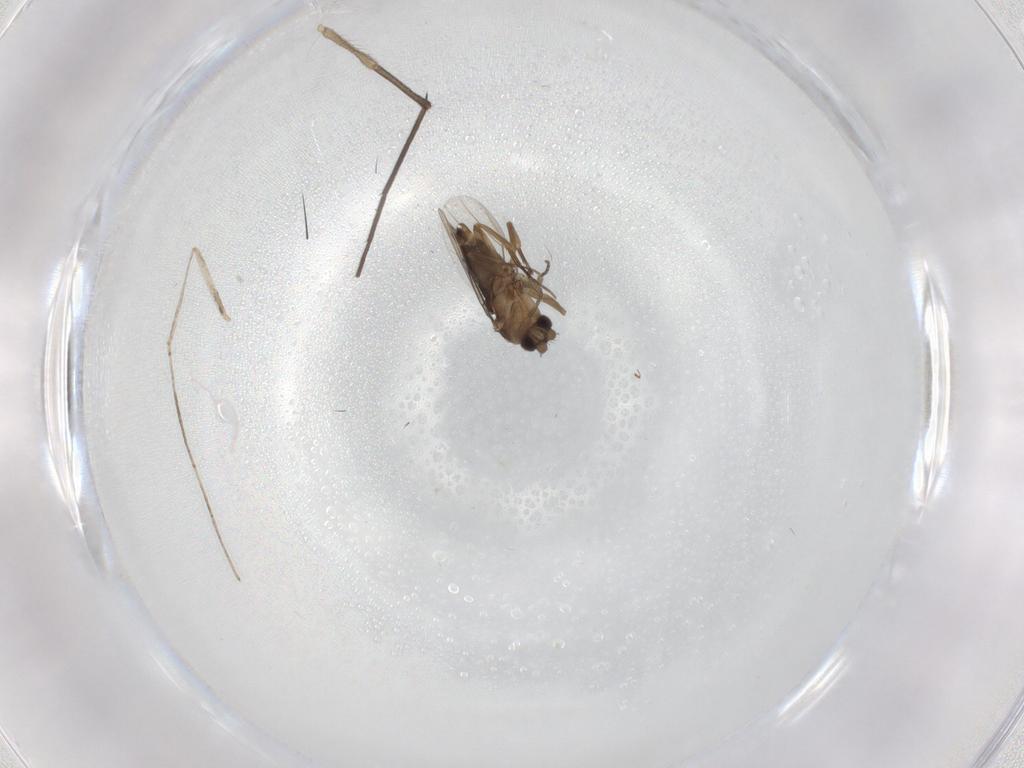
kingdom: Animalia
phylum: Arthropoda
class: Insecta
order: Diptera
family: Phoridae
